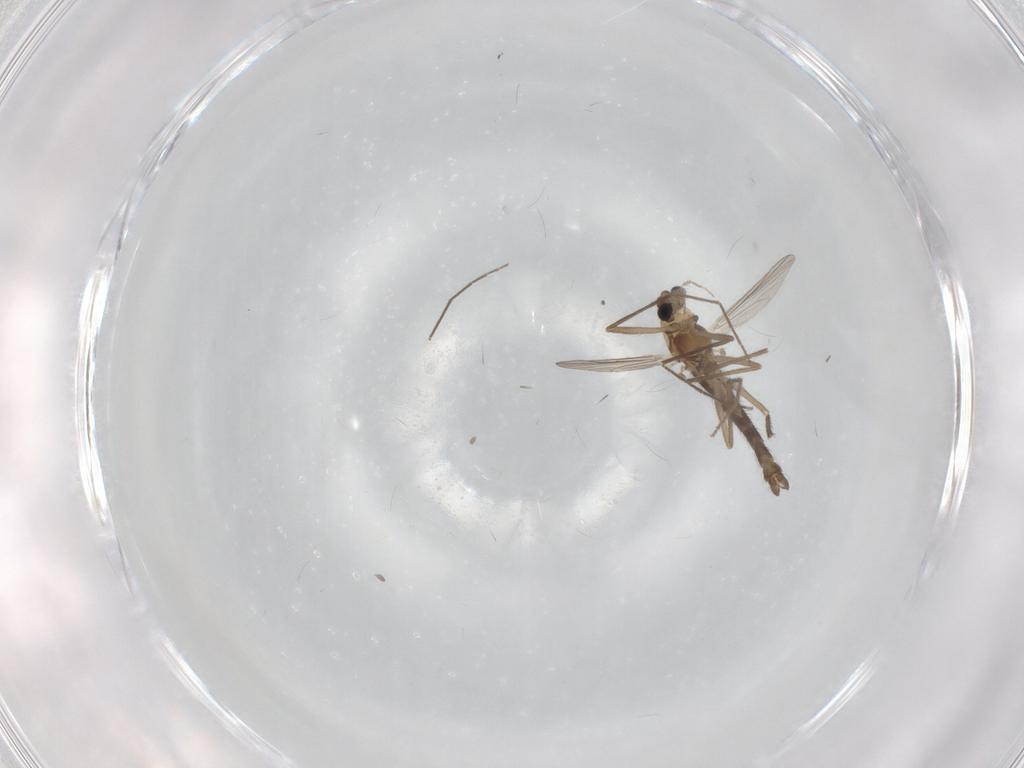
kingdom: Animalia
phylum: Arthropoda
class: Insecta
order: Diptera
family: Chironomidae
